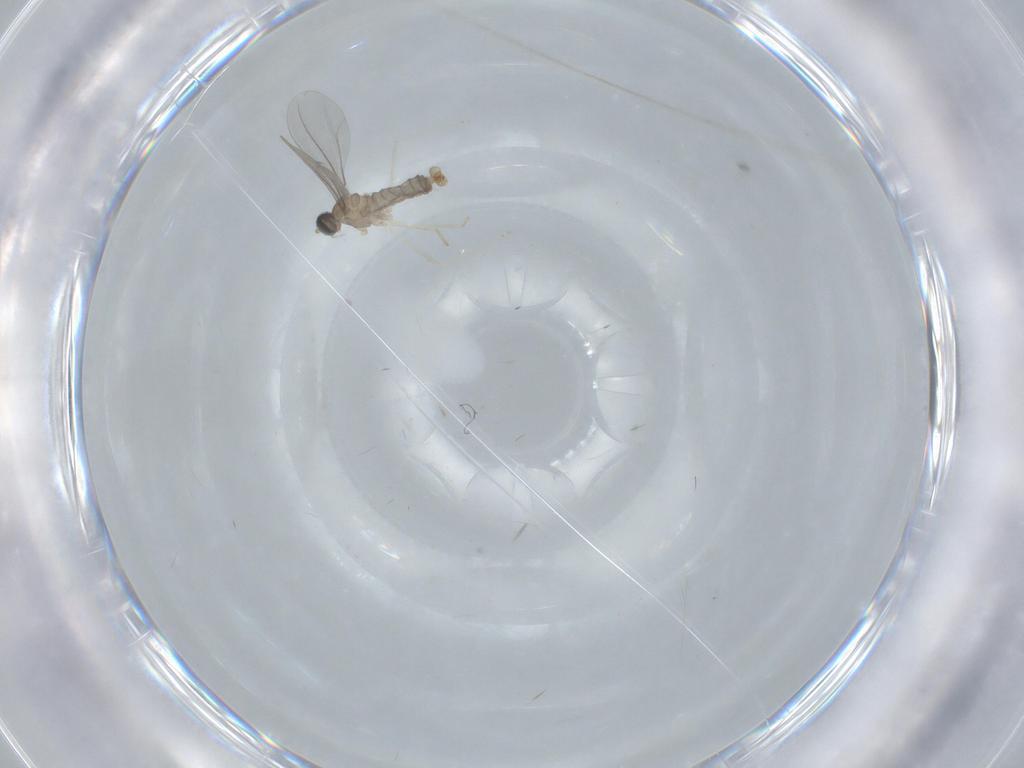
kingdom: Animalia
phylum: Arthropoda
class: Insecta
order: Diptera
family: Cecidomyiidae
